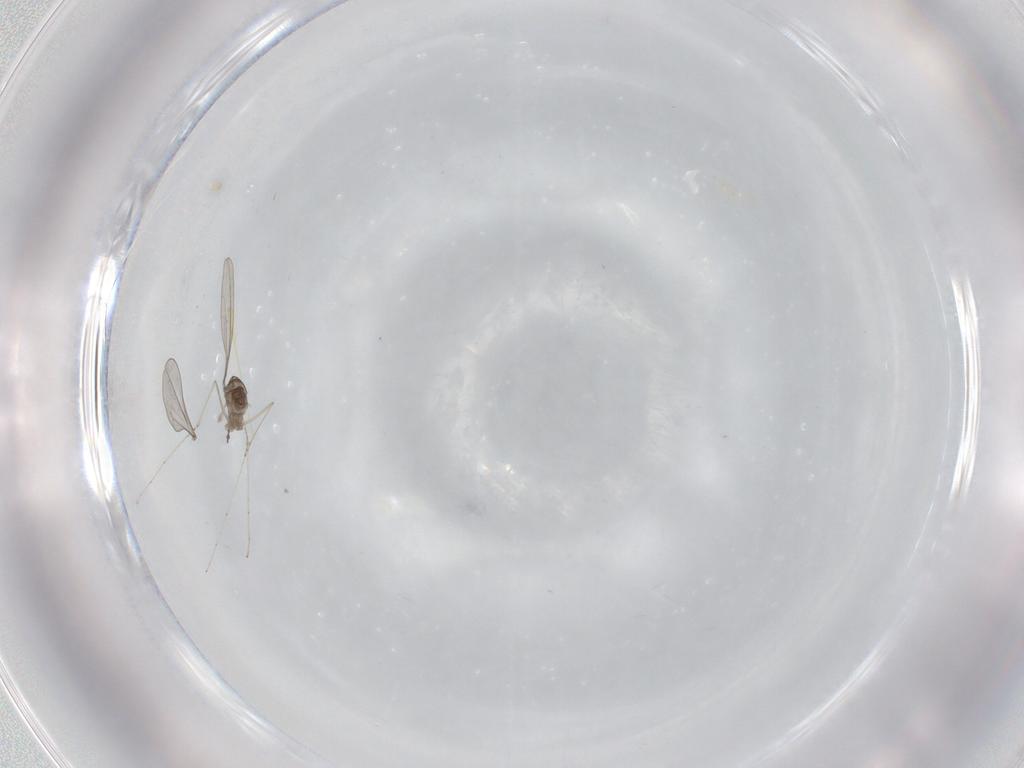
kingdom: Animalia
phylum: Arthropoda
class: Insecta
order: Diptera
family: Cecidomyiidae
